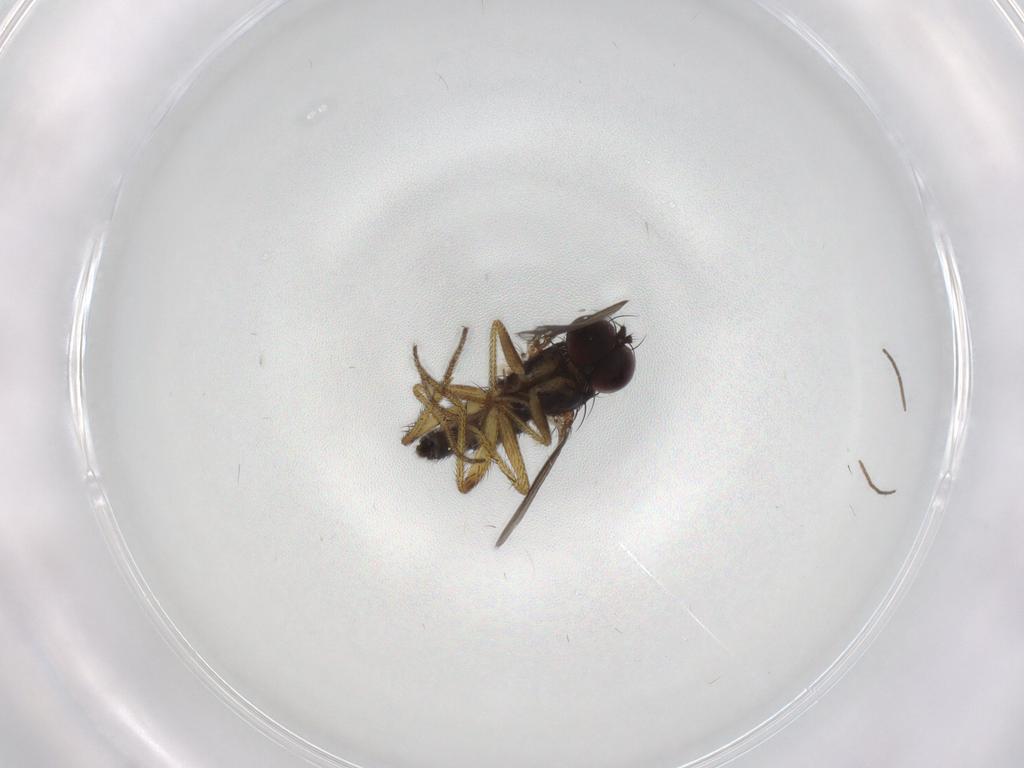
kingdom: Animalia
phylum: Arthropoda
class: Insecta
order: Diptera
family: Chironomidae
